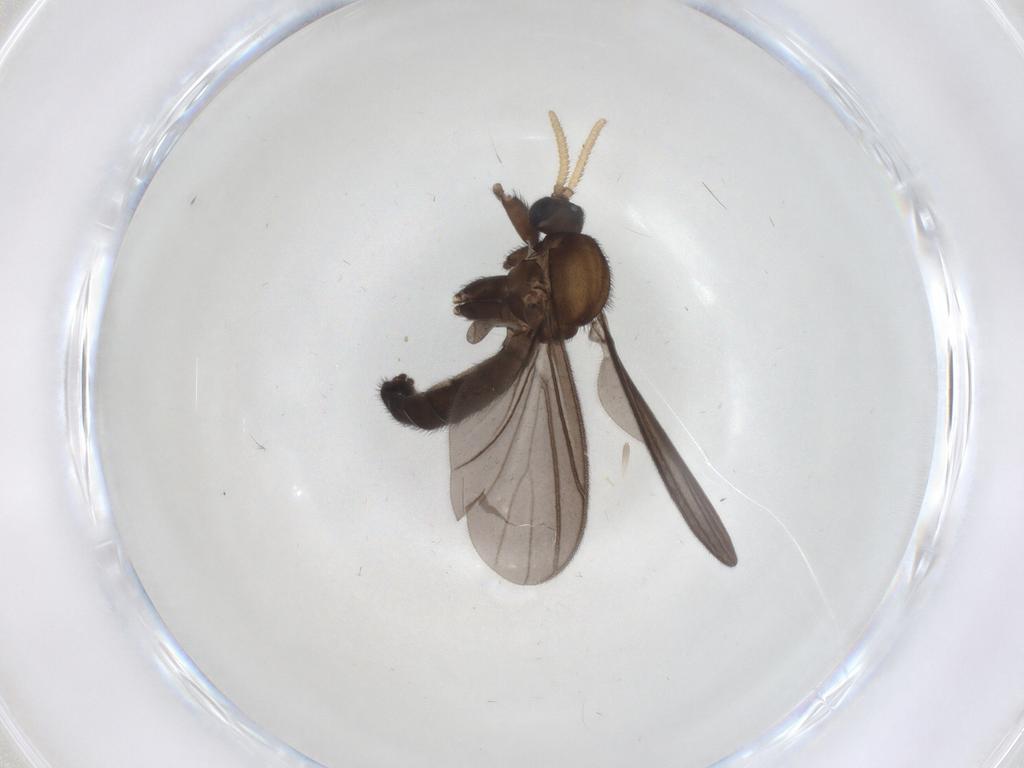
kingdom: Animalia
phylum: Arthropoda
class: Insecta
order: Diptera
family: Mycetophilidae
